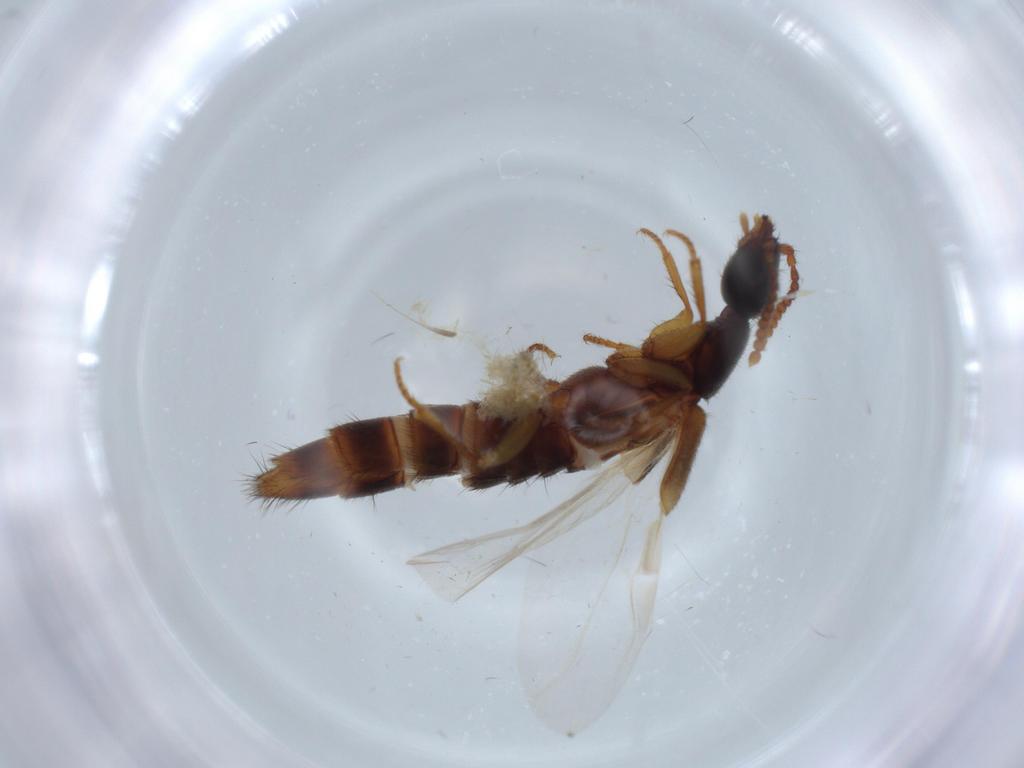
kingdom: Animalia
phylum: Arthropoda
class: Insecta
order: Coleoptera
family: Staphylinidae
